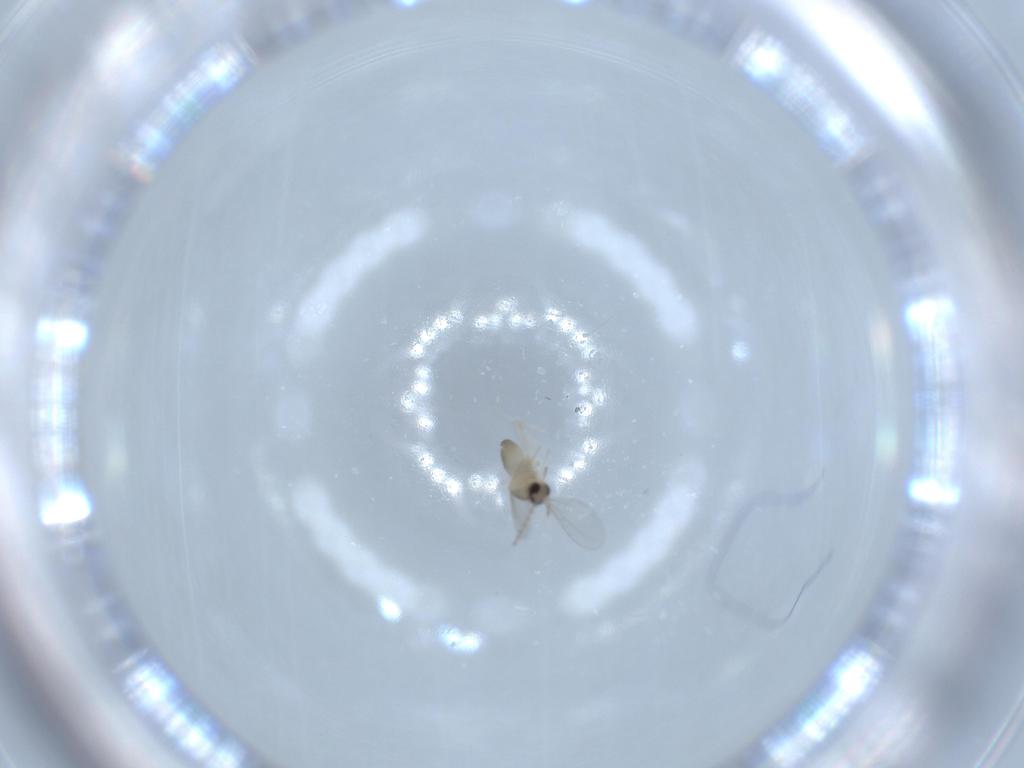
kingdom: Animalia
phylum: Arthropoda
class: Insecta
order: Diptera
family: Cecidomyiidae
